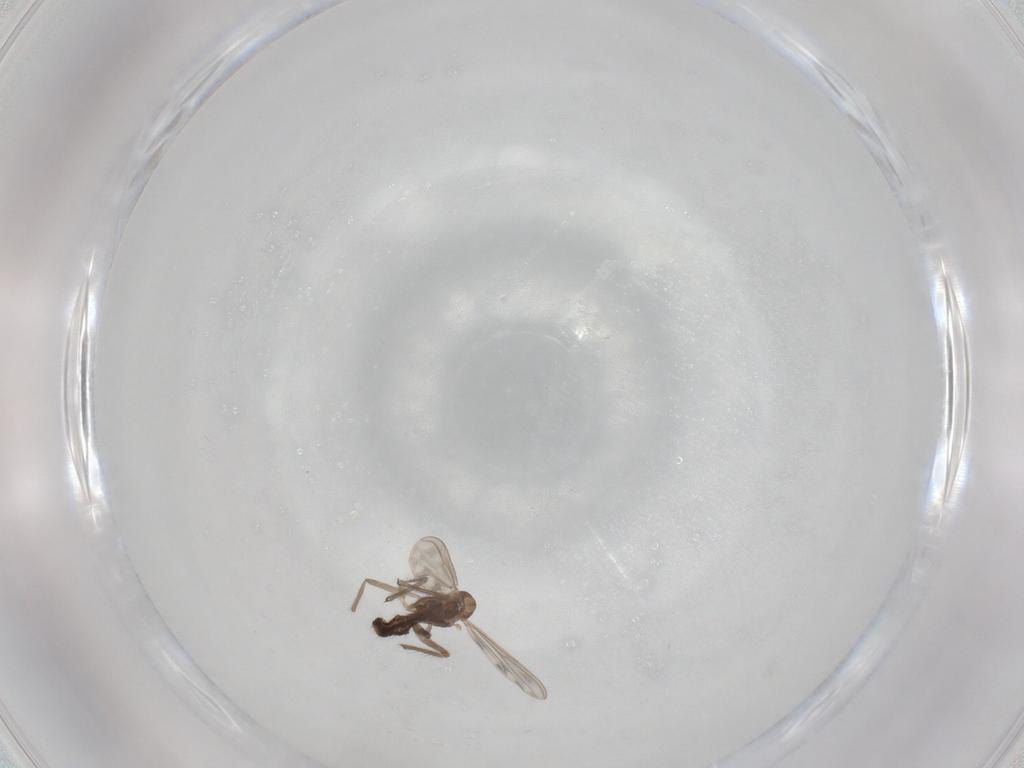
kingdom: Animalia
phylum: Arthropoda
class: Insecta
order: Diptera
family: Chironomidae
